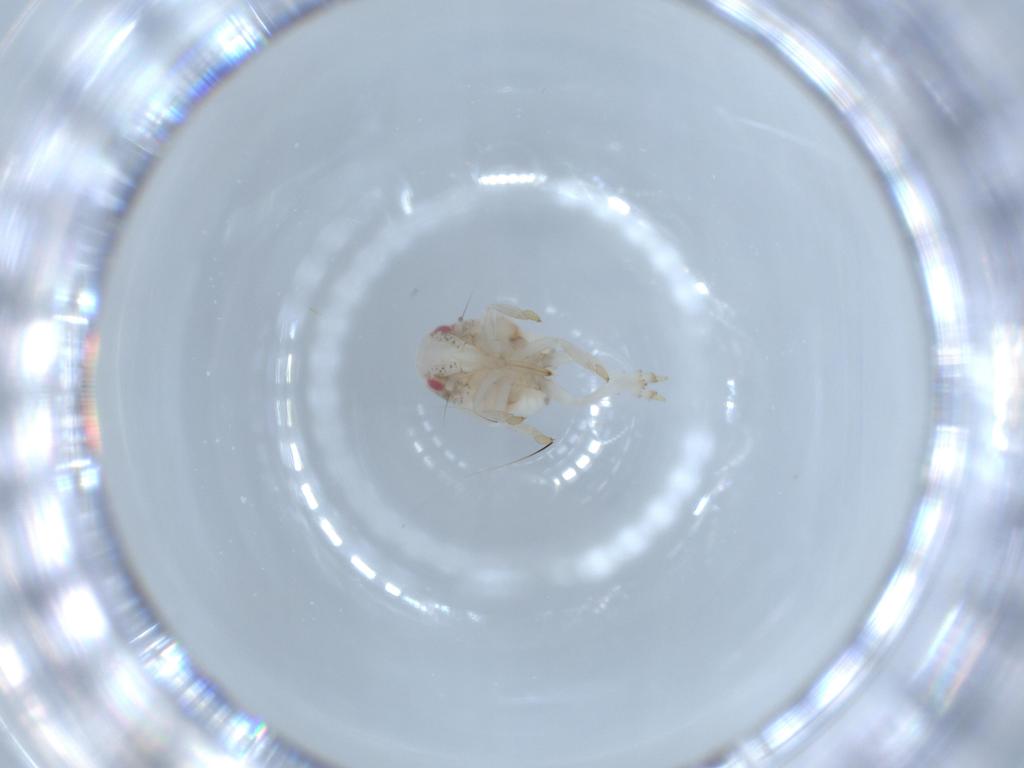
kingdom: Animalia
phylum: Arthropoda
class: Insecta
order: Hemiptera
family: Acanaloniidae
